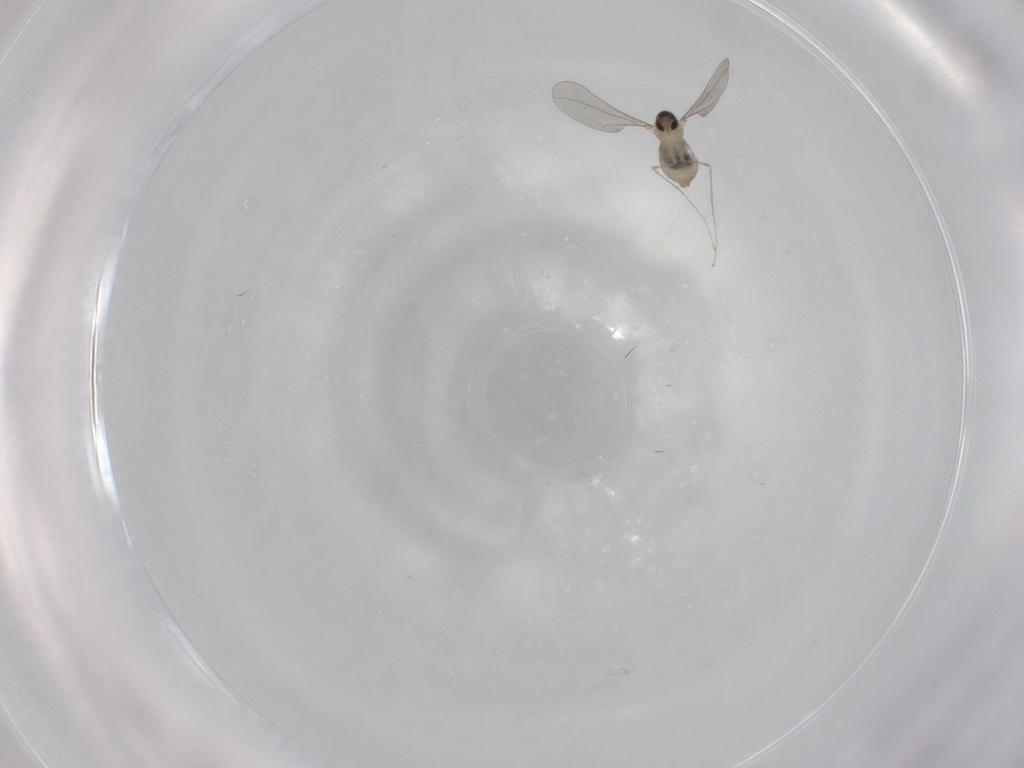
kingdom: Animalia
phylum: Arthropoda
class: Insecta
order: Diptera
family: Cecidomyiidae
